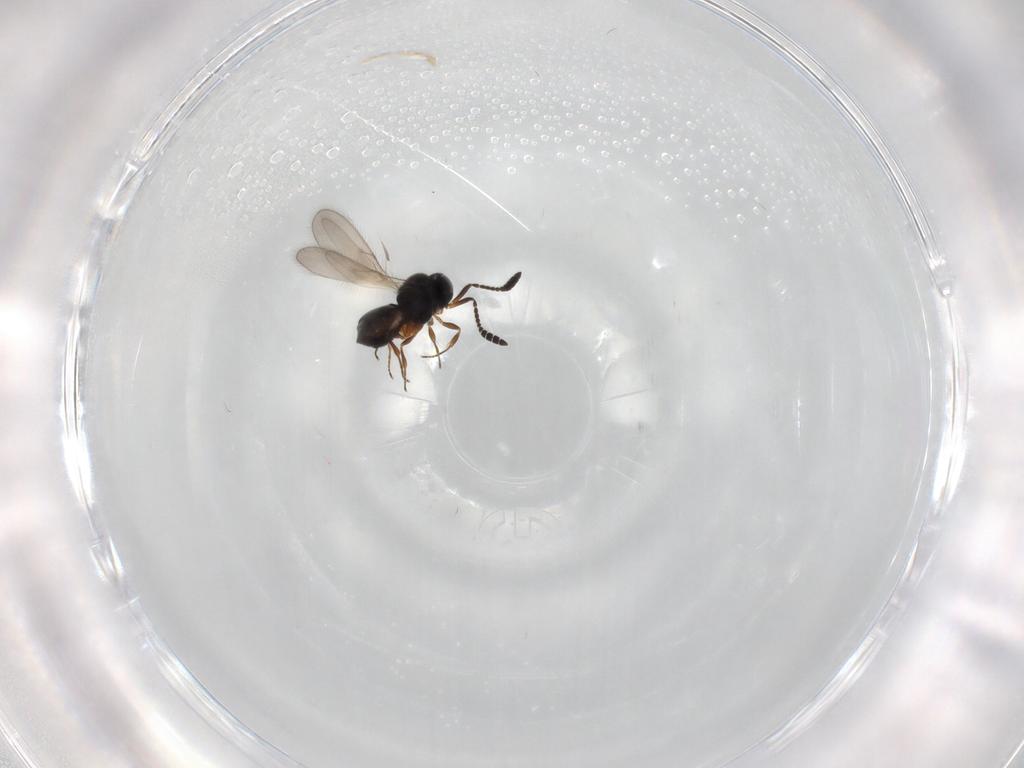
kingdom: Animalia
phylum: Arthropoda
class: Insecta
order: Hymenoptera
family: Scelionidae
